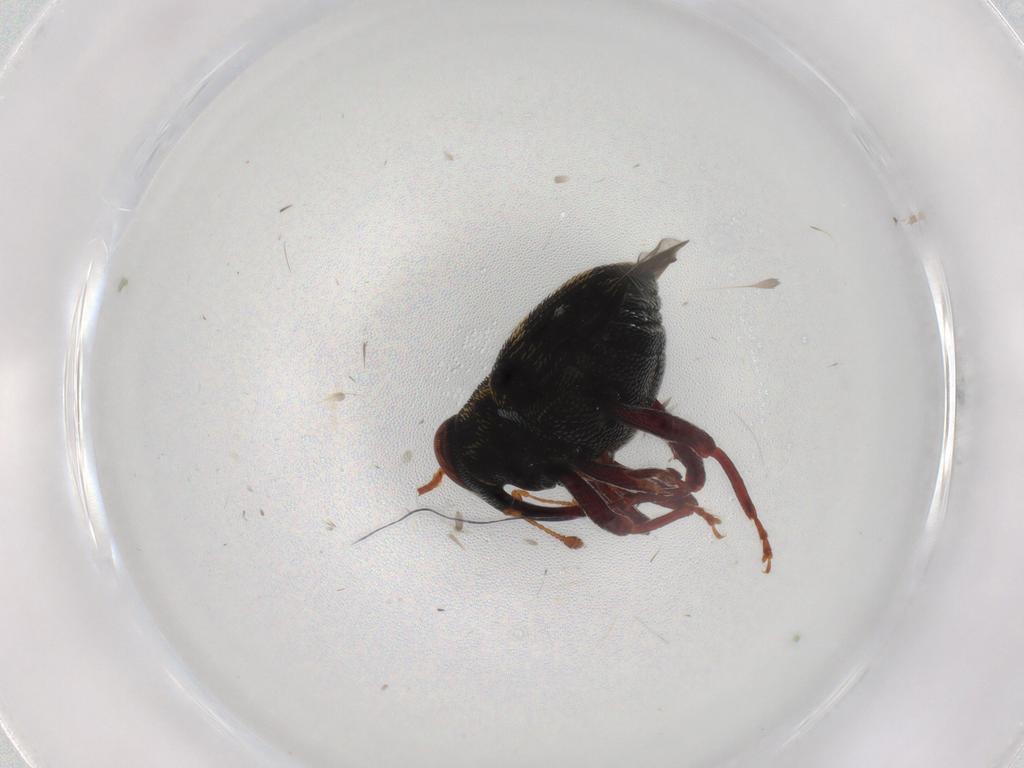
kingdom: Animalia
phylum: Arthropoda
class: Insecta
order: Coleoptera
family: Curculionidae
